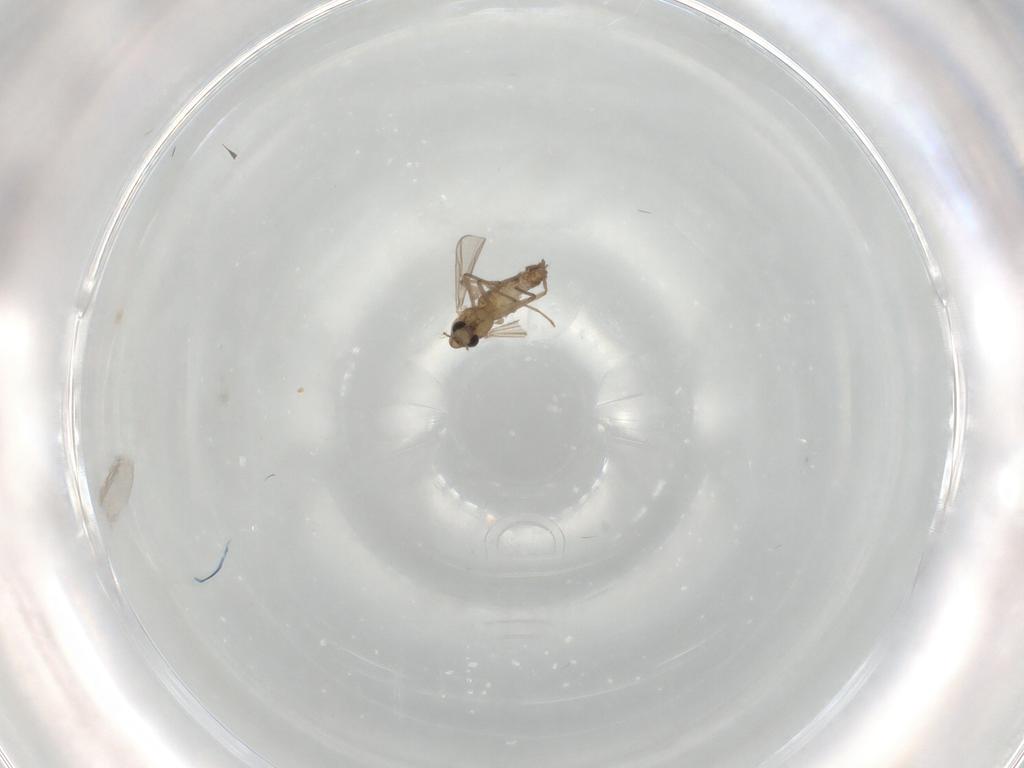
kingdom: Animalia
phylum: Arthropoda
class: Insecta
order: Diptera
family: Chironomidae
